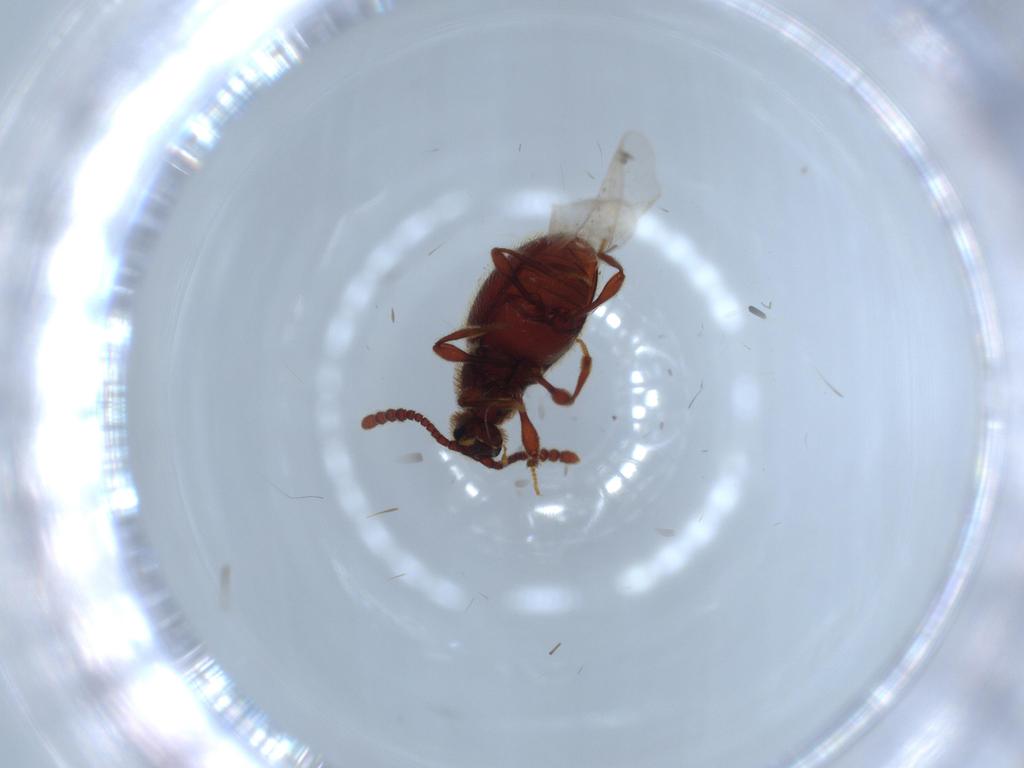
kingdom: Animalia
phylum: Arthropoda
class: Insecta
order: Coleoptera
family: Staphylinidae
